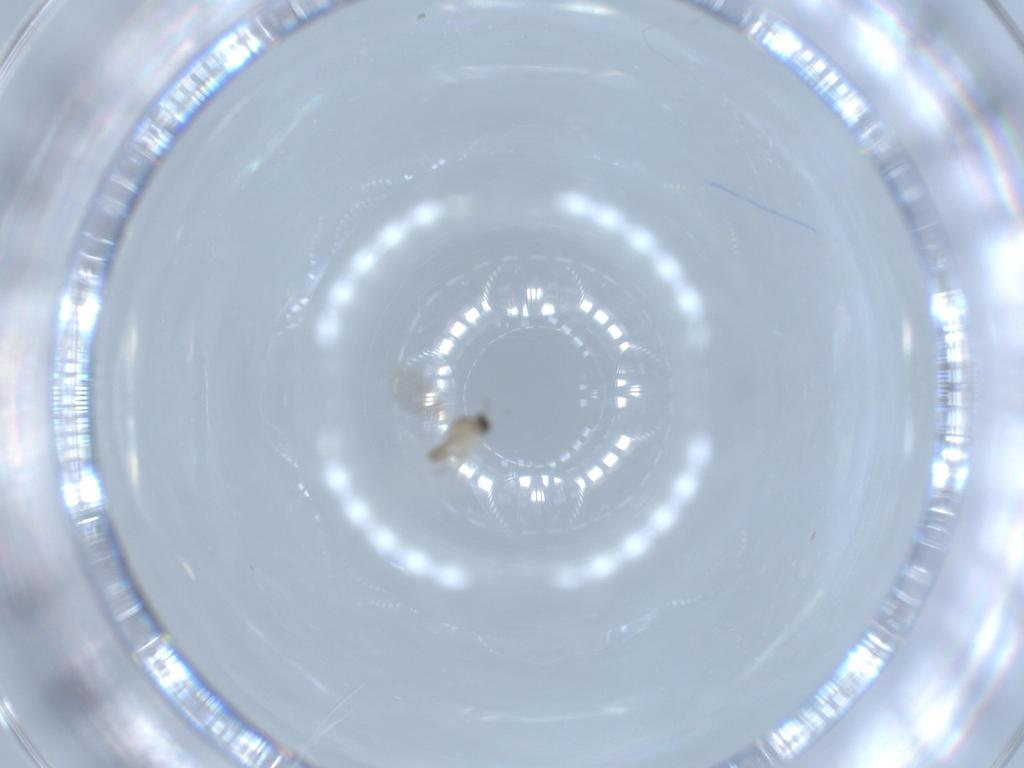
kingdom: Animalia
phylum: Arthropoda
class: Insecta
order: Diptera
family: Cecidomyiidae
